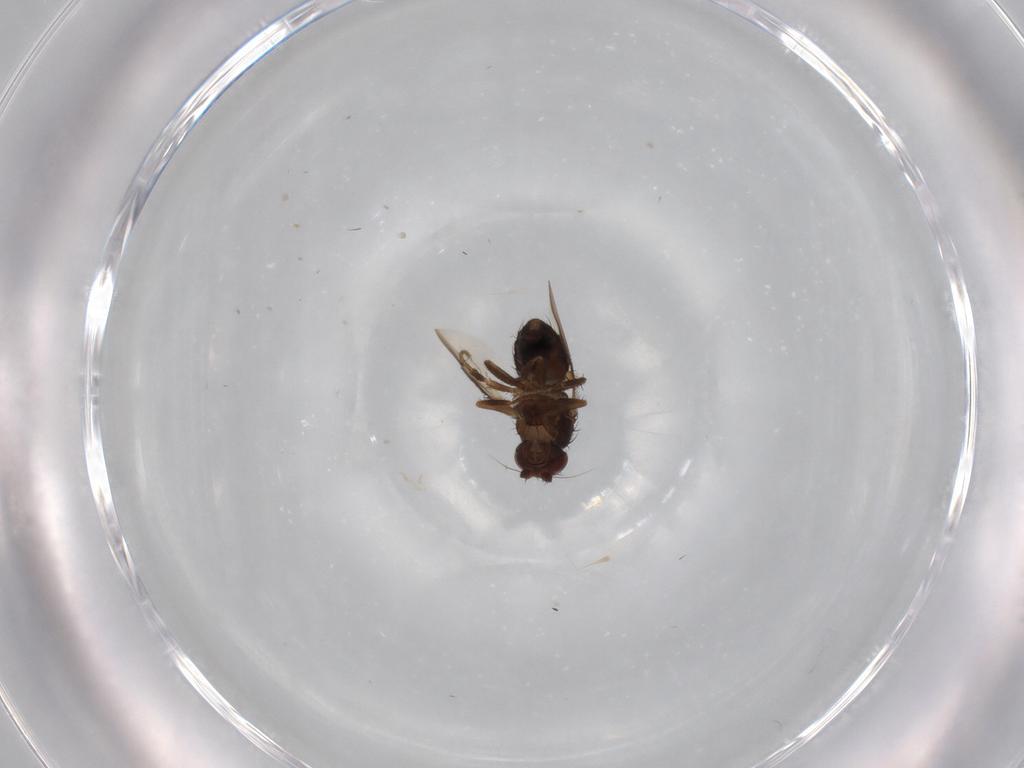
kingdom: Animalia
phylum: Arthropoda
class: Insecta
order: Diptera
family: Sphaeroceridae
